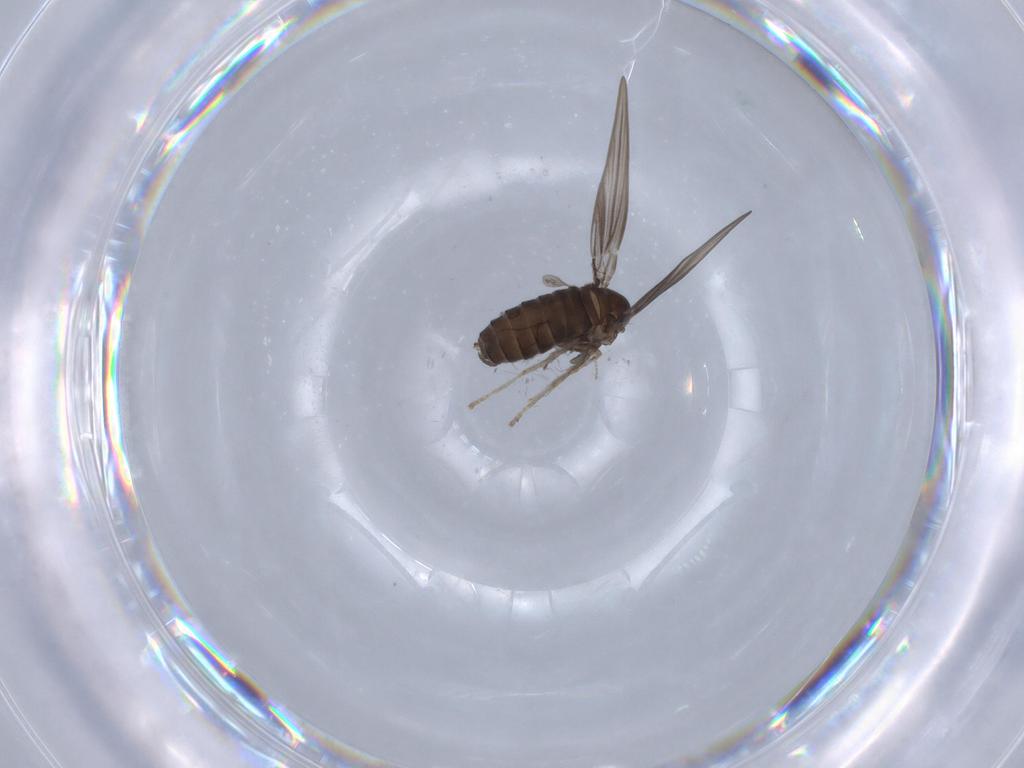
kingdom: Animalia
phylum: Arthropoda
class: Insecta
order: Diptera
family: Psychodidae
